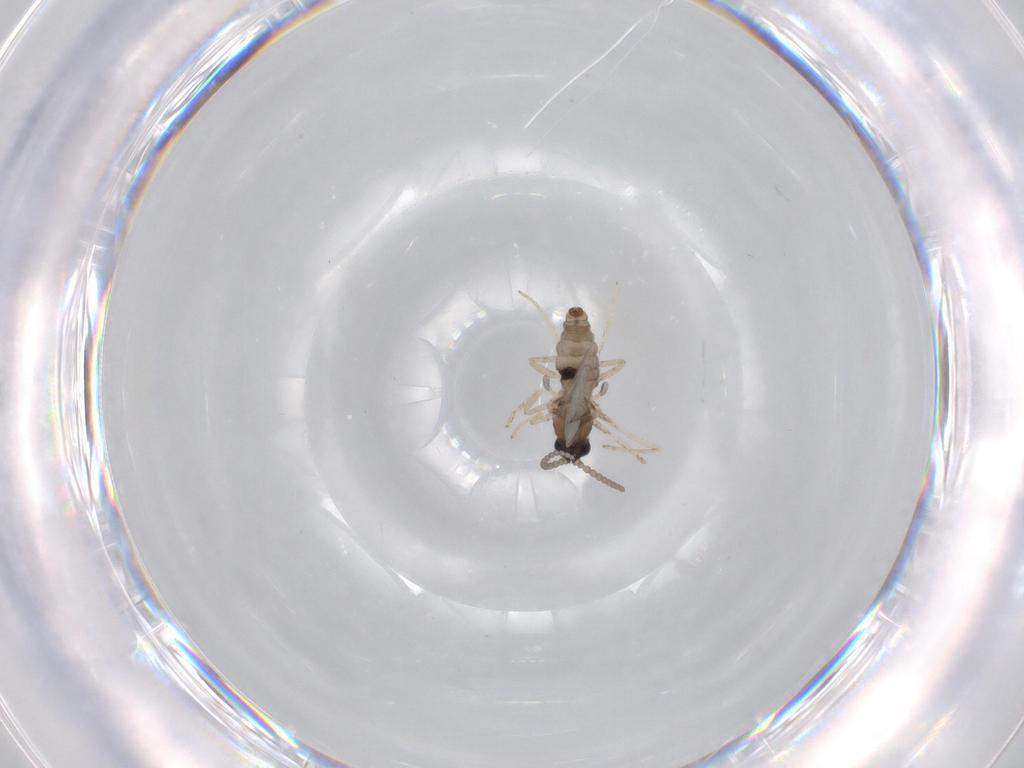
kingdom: Animalia
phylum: Arthropoda
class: Insecta
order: Diptera
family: Cecidomyiidae
